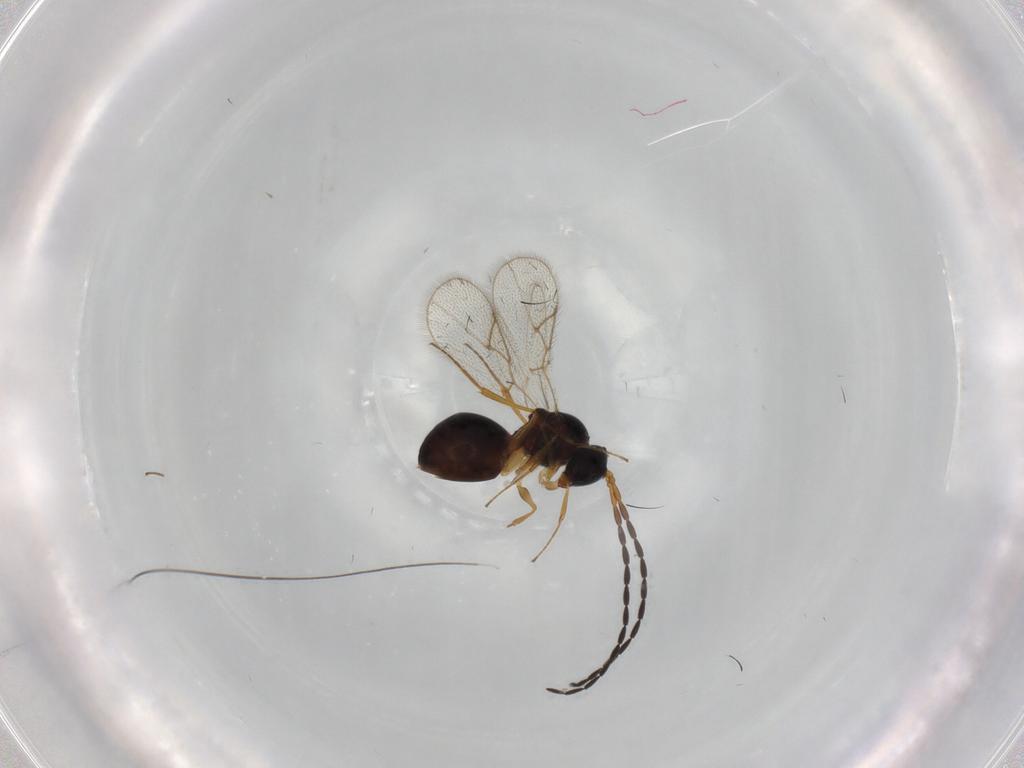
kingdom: Animalia
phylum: Arthropoda
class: Insecta
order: Hymenoptera
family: Figitidae
